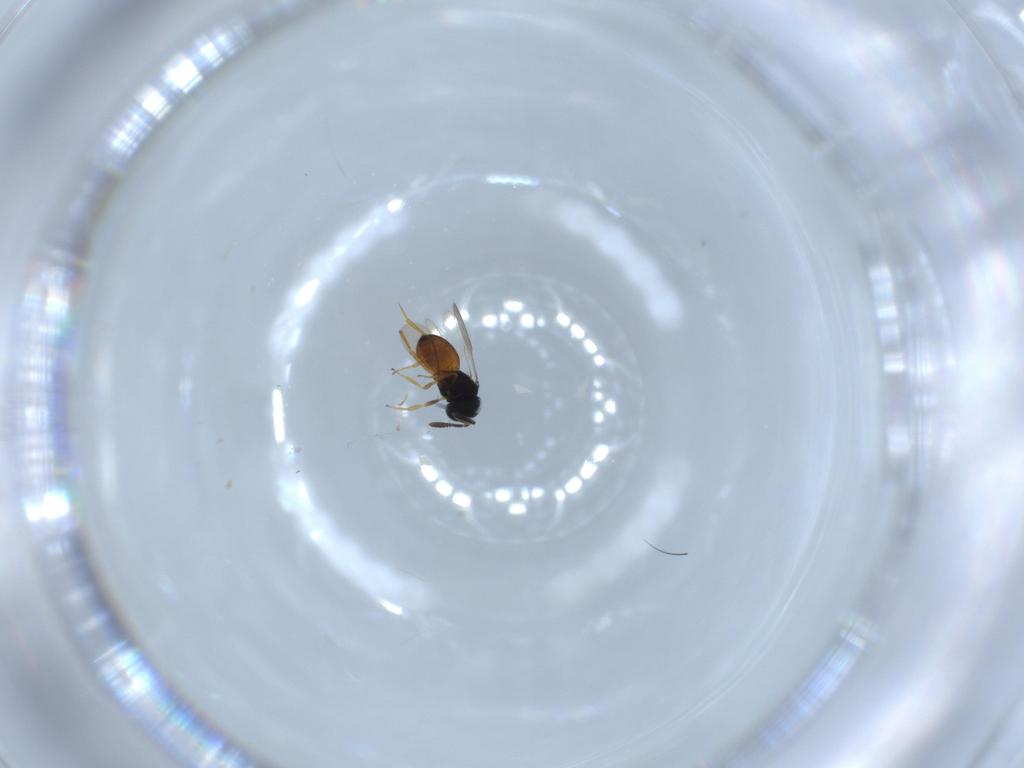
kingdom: Animalia
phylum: Arthropoda
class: Insecta
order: Hymenoptera
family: Scelionidae
